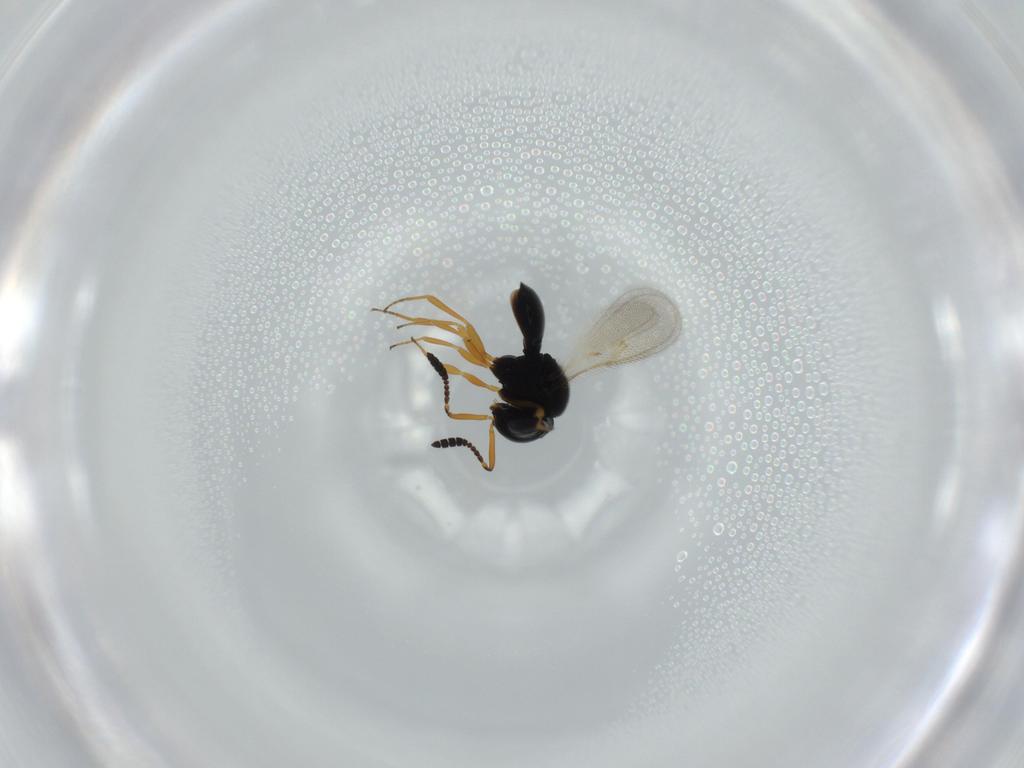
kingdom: Animalia
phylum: Arthropoda
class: Insecta
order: Hymenoptera
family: Scelionidae
